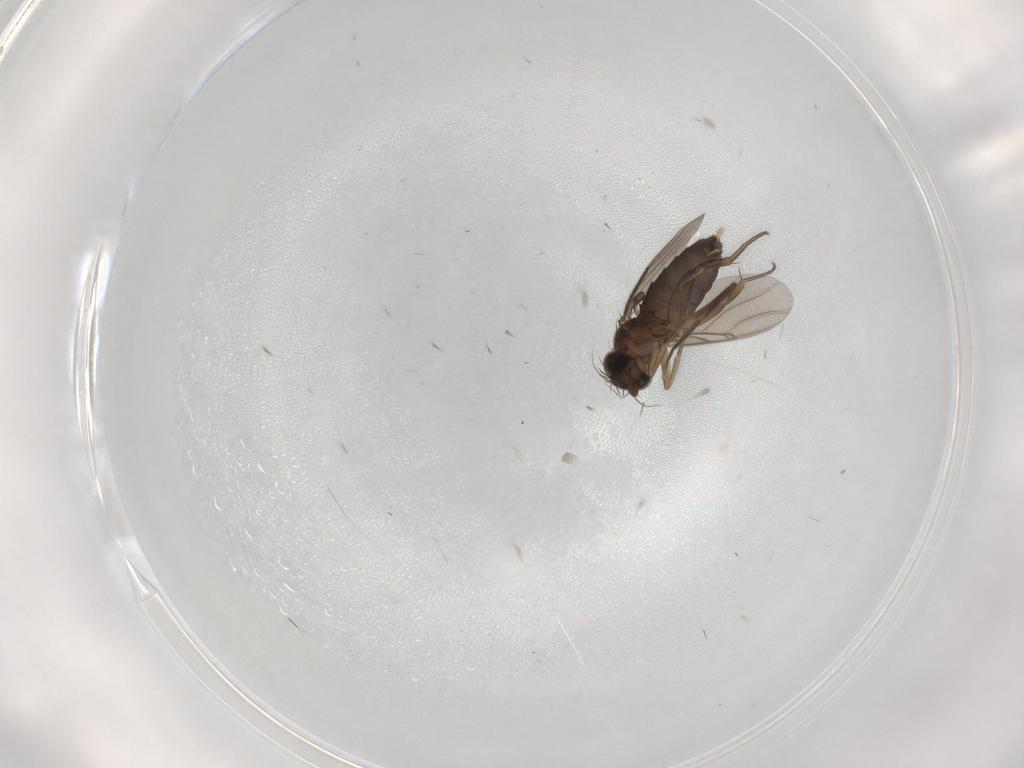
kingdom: Animalia
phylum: Arthropoda
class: Insecta
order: Diptera
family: Phoridae
